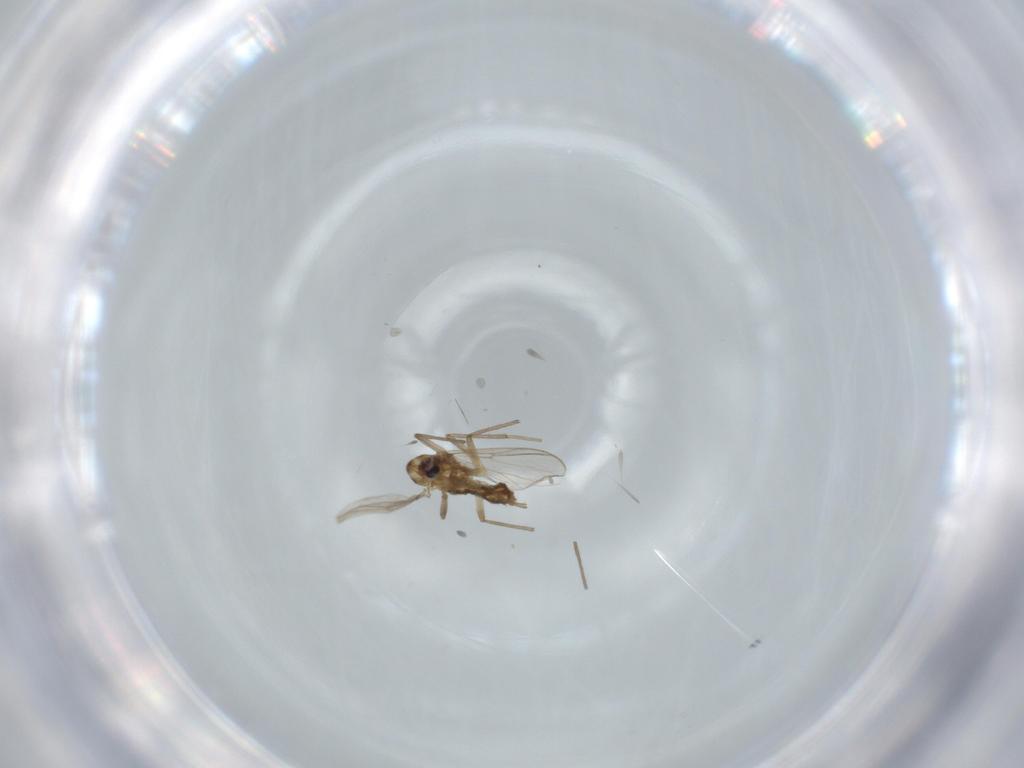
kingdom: Animalia
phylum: Arthropoda
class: Insecta
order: Diptera
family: Chironomidae
